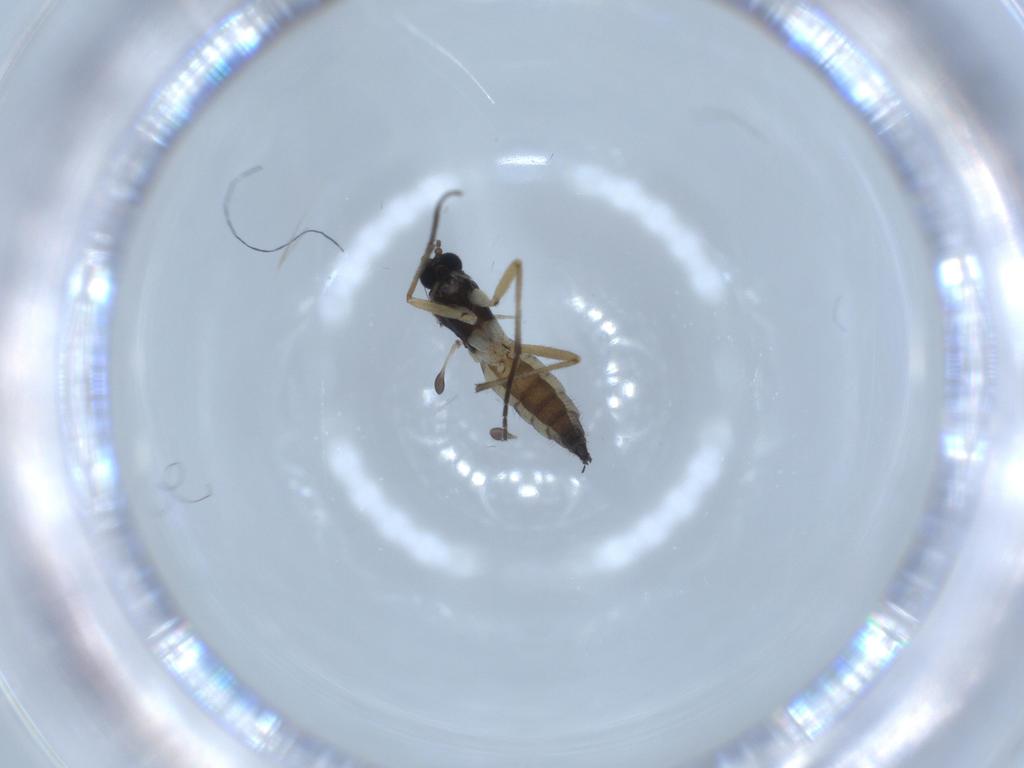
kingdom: Animalia
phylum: Arthropoda
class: Insecta
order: Diptera
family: Sciaridae
